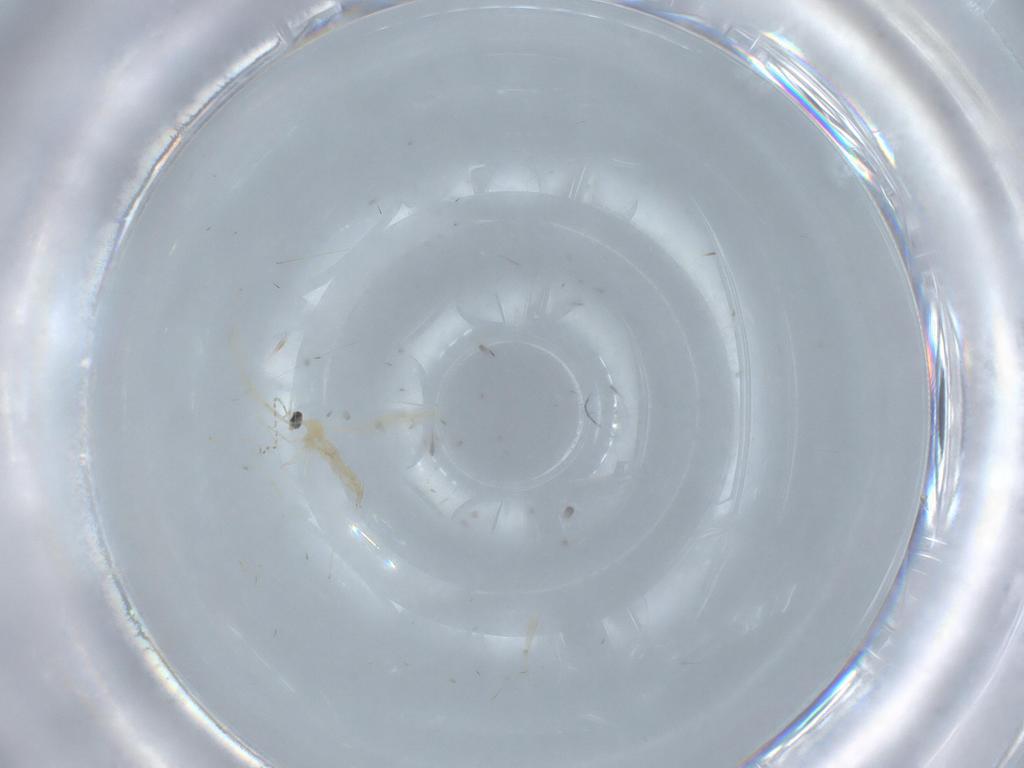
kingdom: Animalia
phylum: Arthropoda
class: Insecta
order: Diptera
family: Cecidomyiidae
